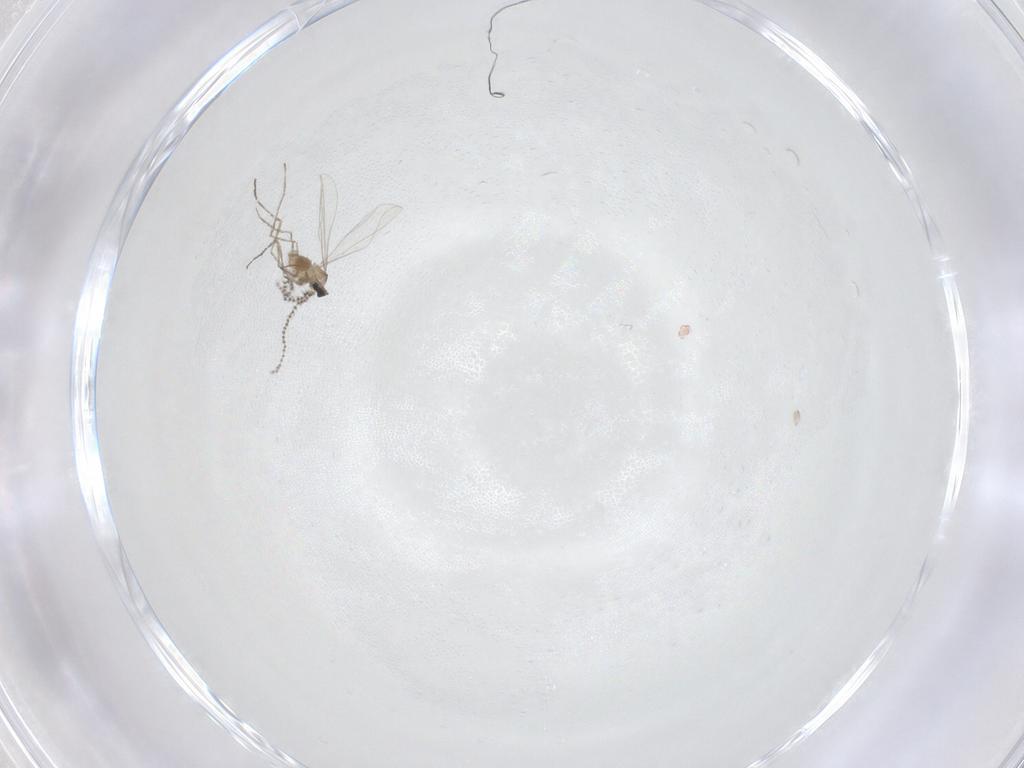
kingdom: Animalia
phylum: Arthropoda
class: Insecta
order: Diptera
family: Cecidomyiidae
